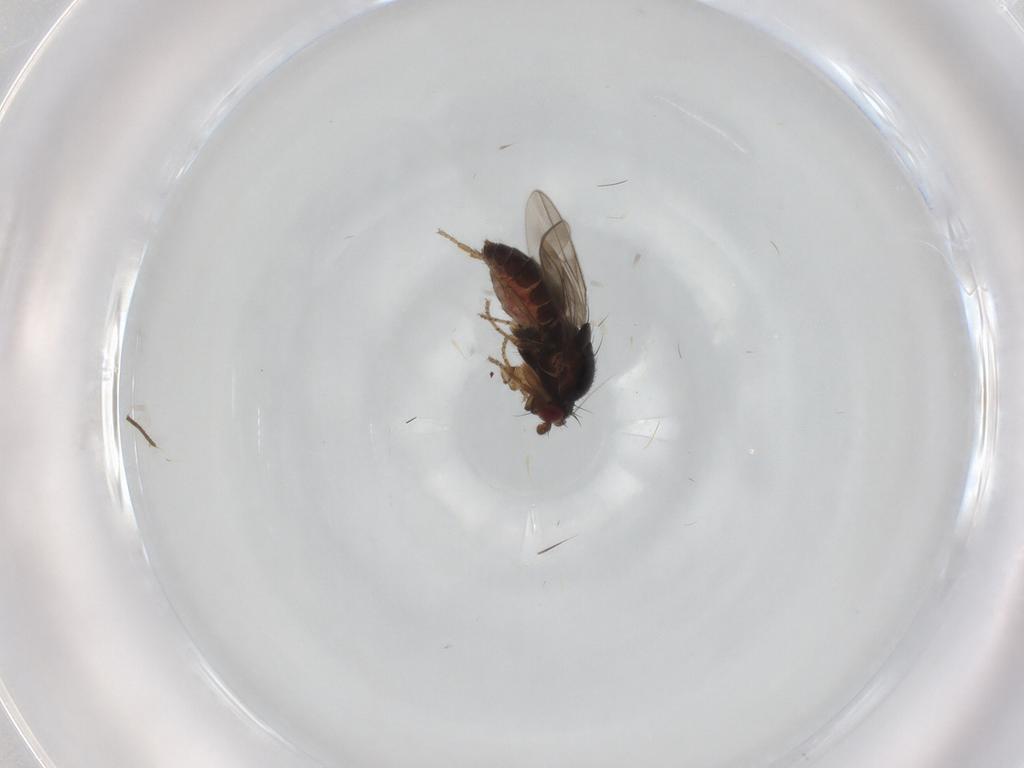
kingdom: Animalia
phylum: Arthropoda
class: Insecta
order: Diptera
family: Sphaeroceridae
